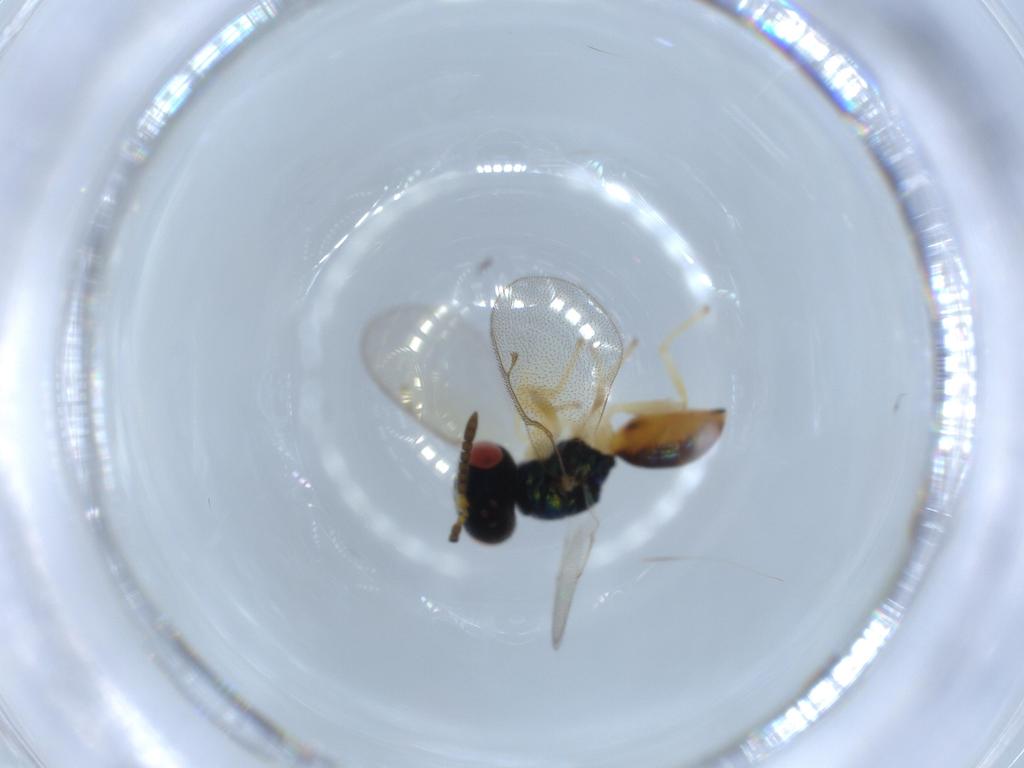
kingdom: Animalia
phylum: Arthropoda
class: Insecta
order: Hymenoptera
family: Pteromalidae
